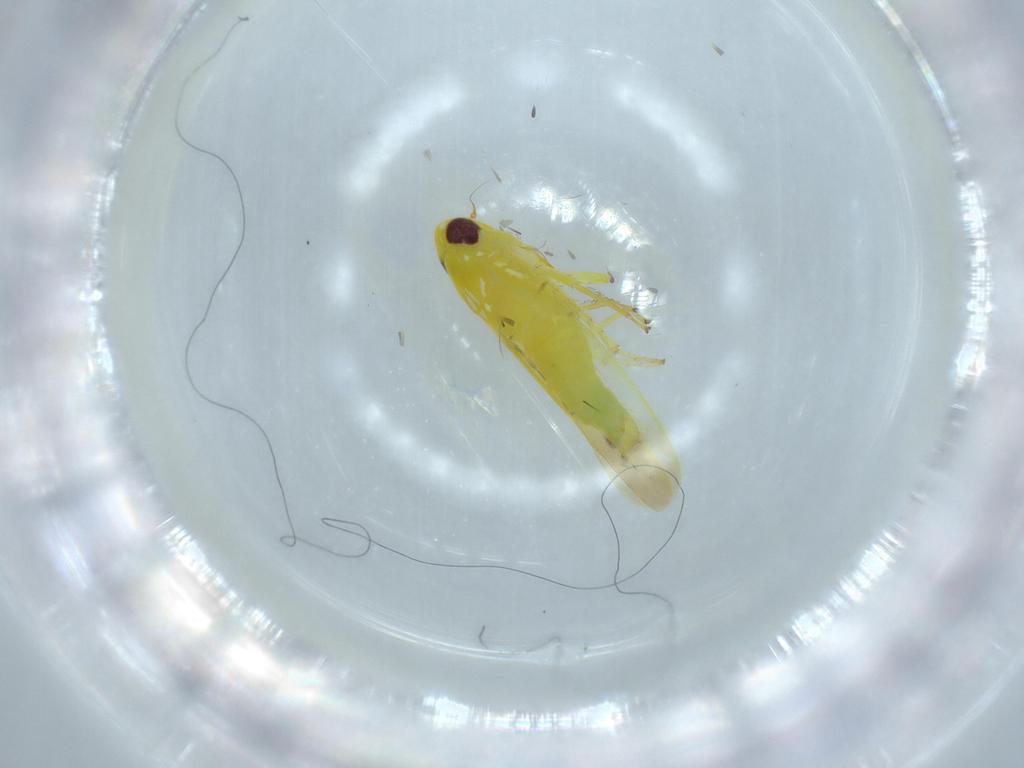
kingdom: Animalia
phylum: Arthropoda
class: Insecta
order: Hemiptera
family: Cicadellidae
